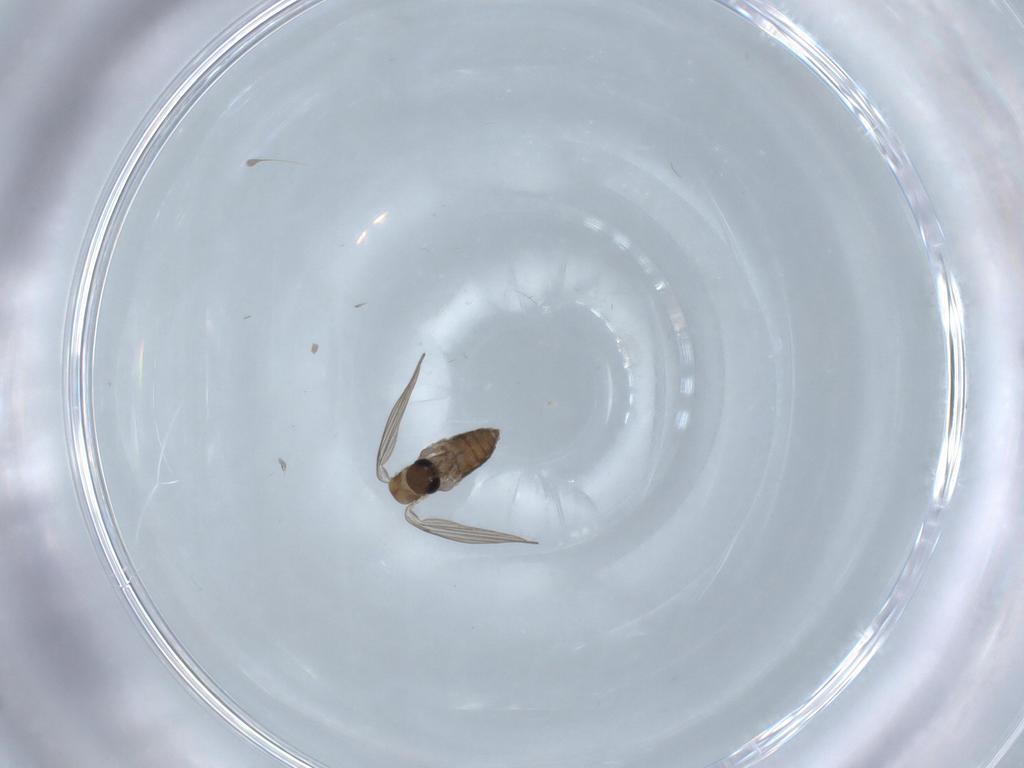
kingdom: Animalia
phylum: Arthropoda
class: Insecta
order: Diptera
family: Psychodidae
